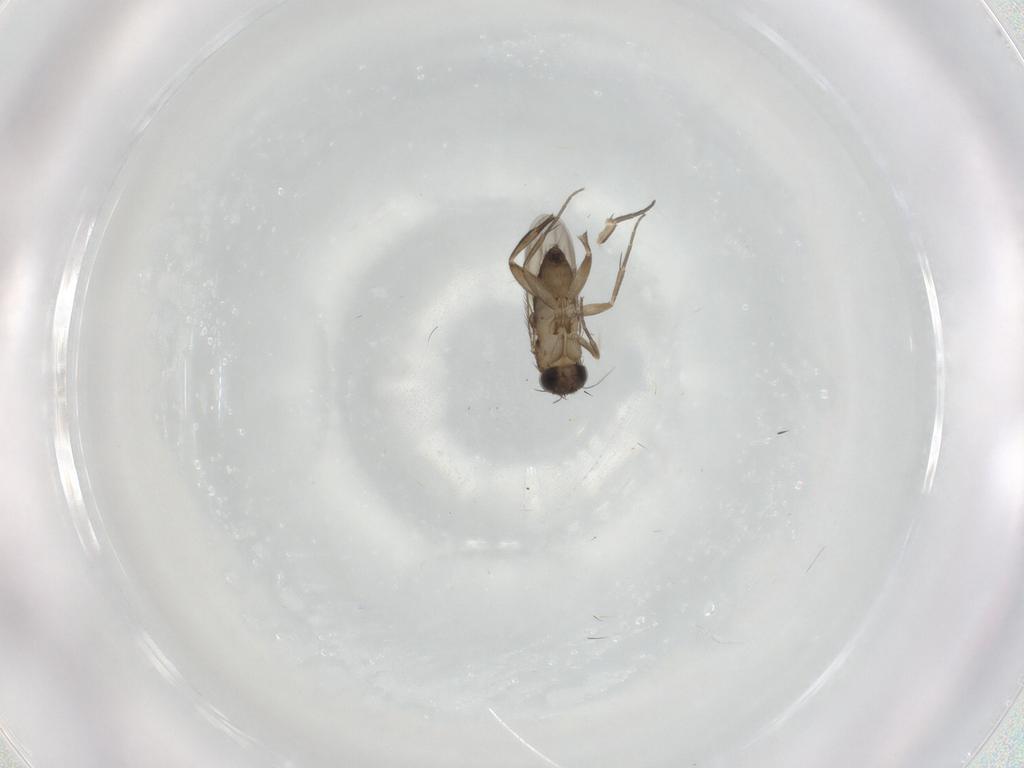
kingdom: Animalia
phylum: Arthropoda
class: Insecta
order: Diptera
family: Phoridae
